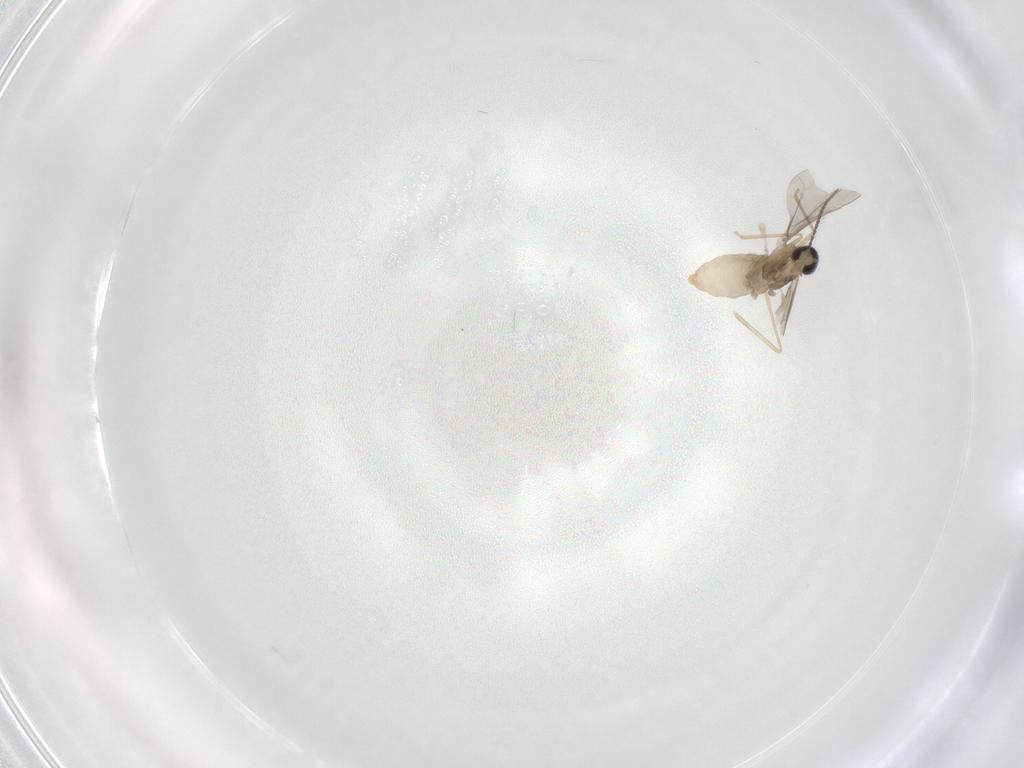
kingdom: Animalia
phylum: Arthropoda
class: Insecta
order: Diptera
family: Cecidomyiidae
